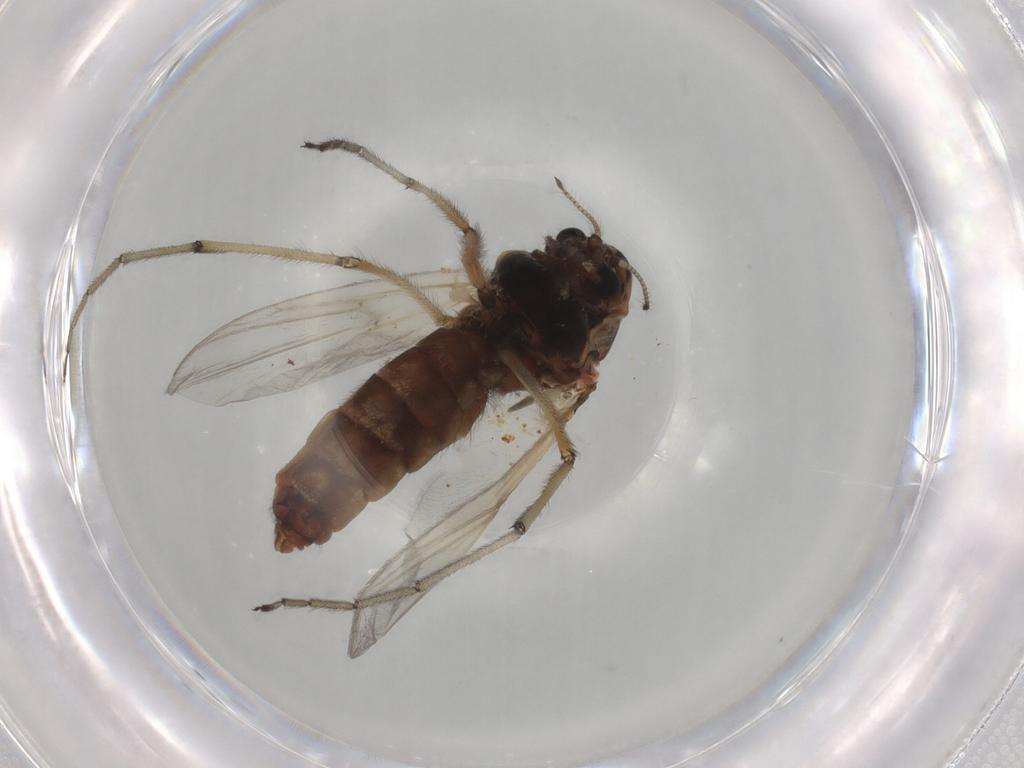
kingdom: Animalia
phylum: Arthropoda
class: Insecta
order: Diptera
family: Chironomidae
